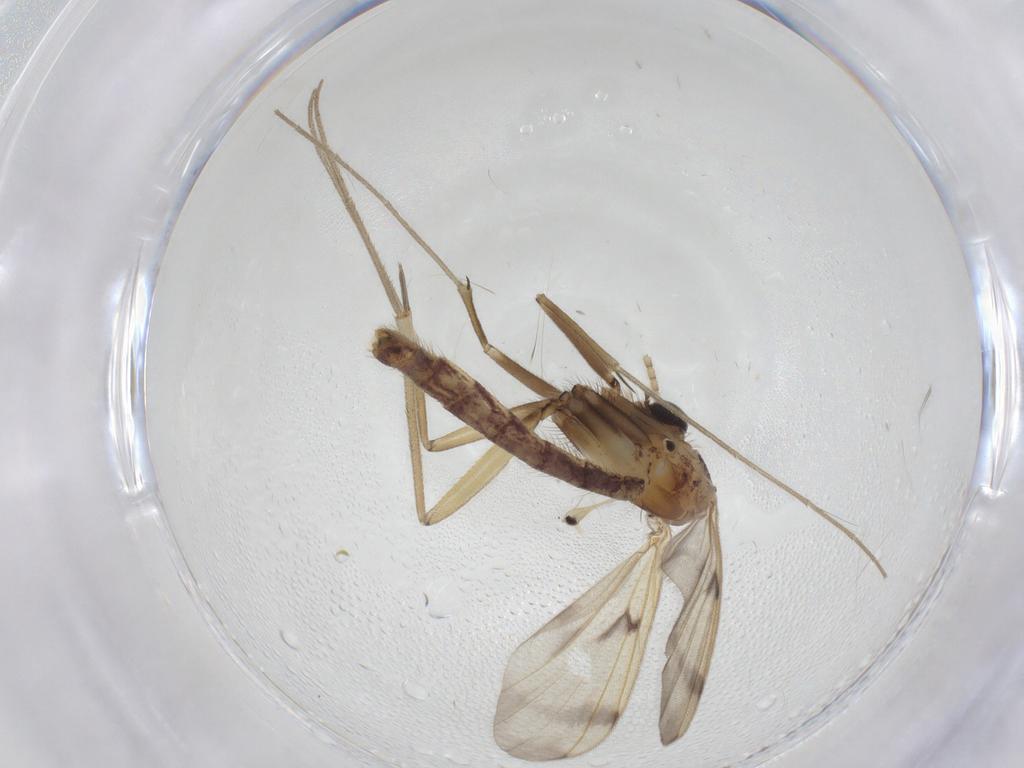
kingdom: Animalia
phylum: Arthropoda
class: Insecta
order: Diptera
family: Mycetophilidae
